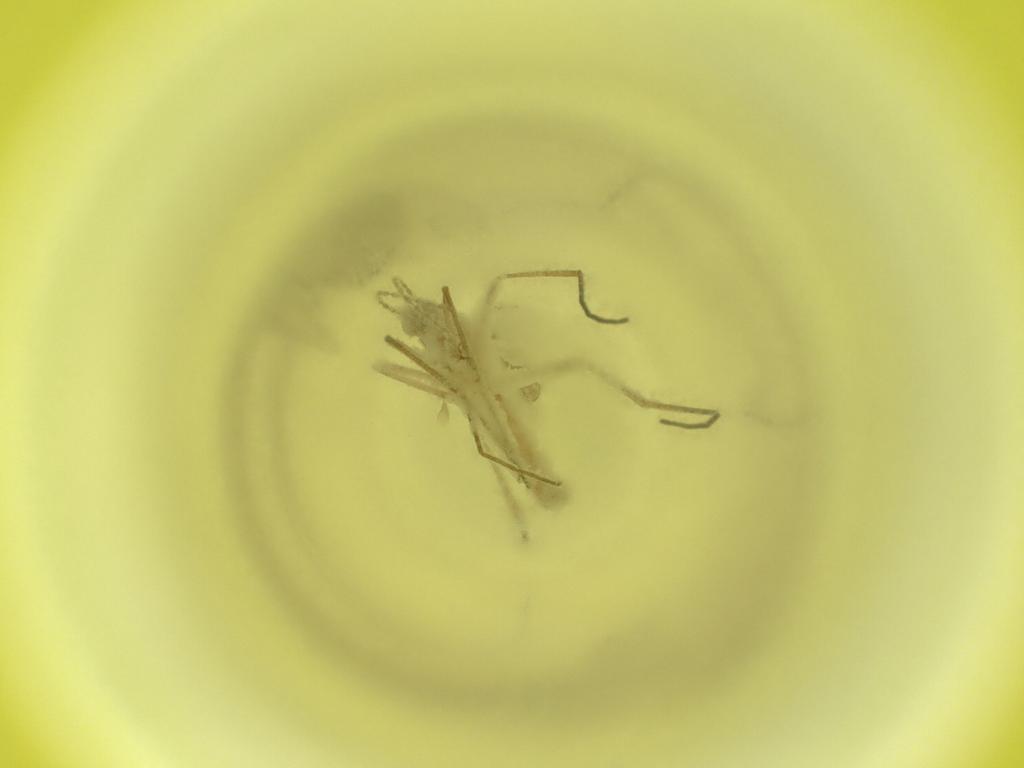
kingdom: Animalia
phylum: Arthropoda
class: Insecta
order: Diptera
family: Cecidomyiidae
